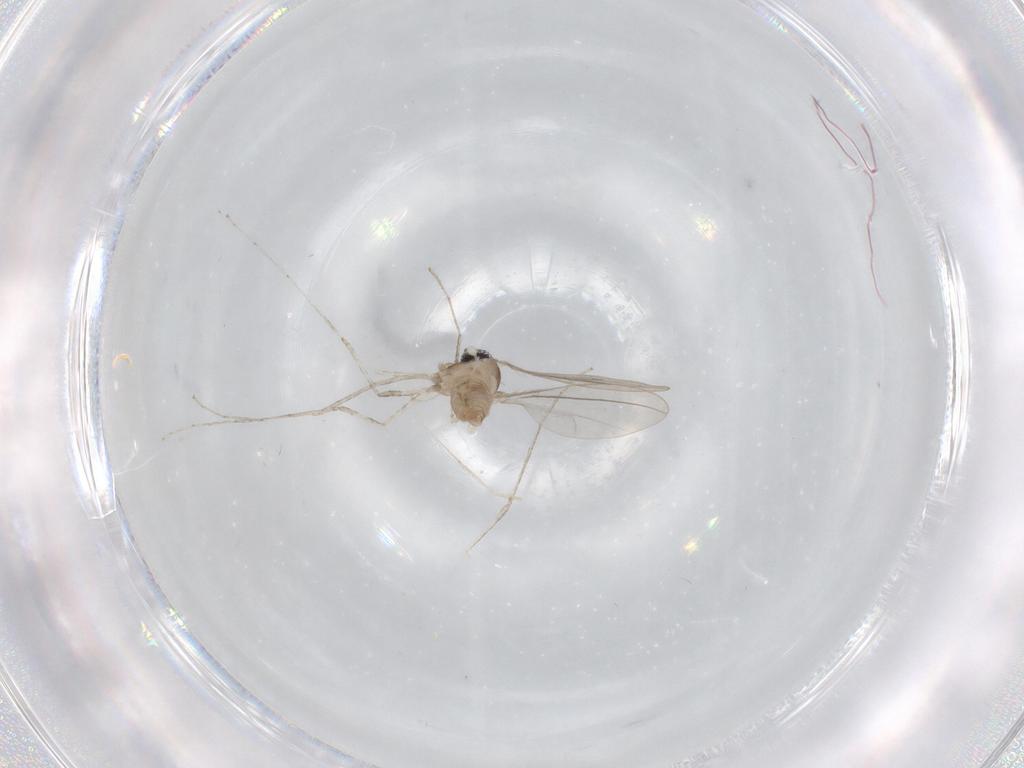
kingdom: Animalia
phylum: Arthropoda
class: Insecta
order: Diptera
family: Cecidomyiidae
